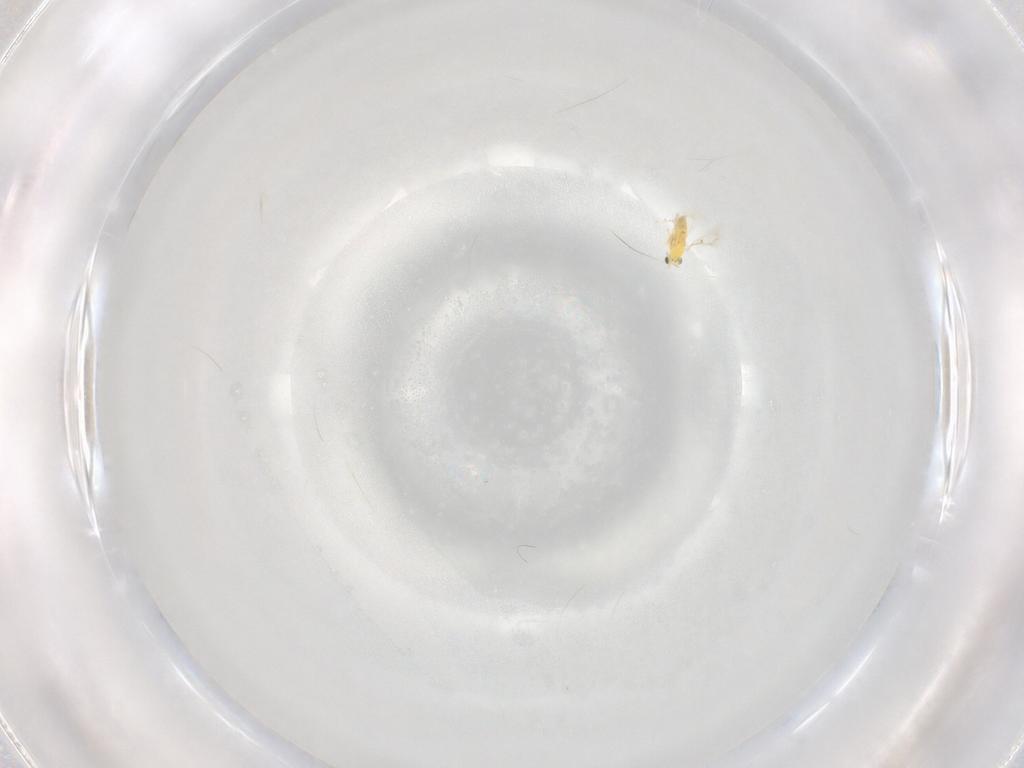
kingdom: Animalia
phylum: Arthropoda
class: Insecta
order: Hymenoptera
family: Trichogrammatidae
